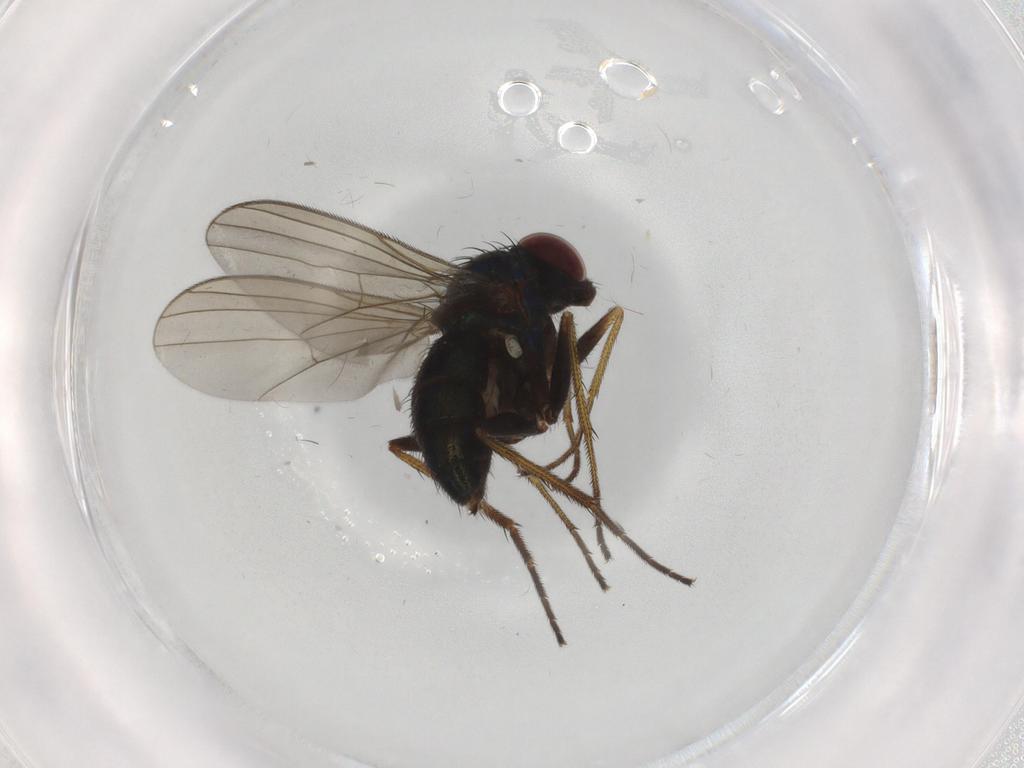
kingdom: Animalia
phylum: Arthropoda
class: Insecta
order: Diptera
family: Dolichopodidae
